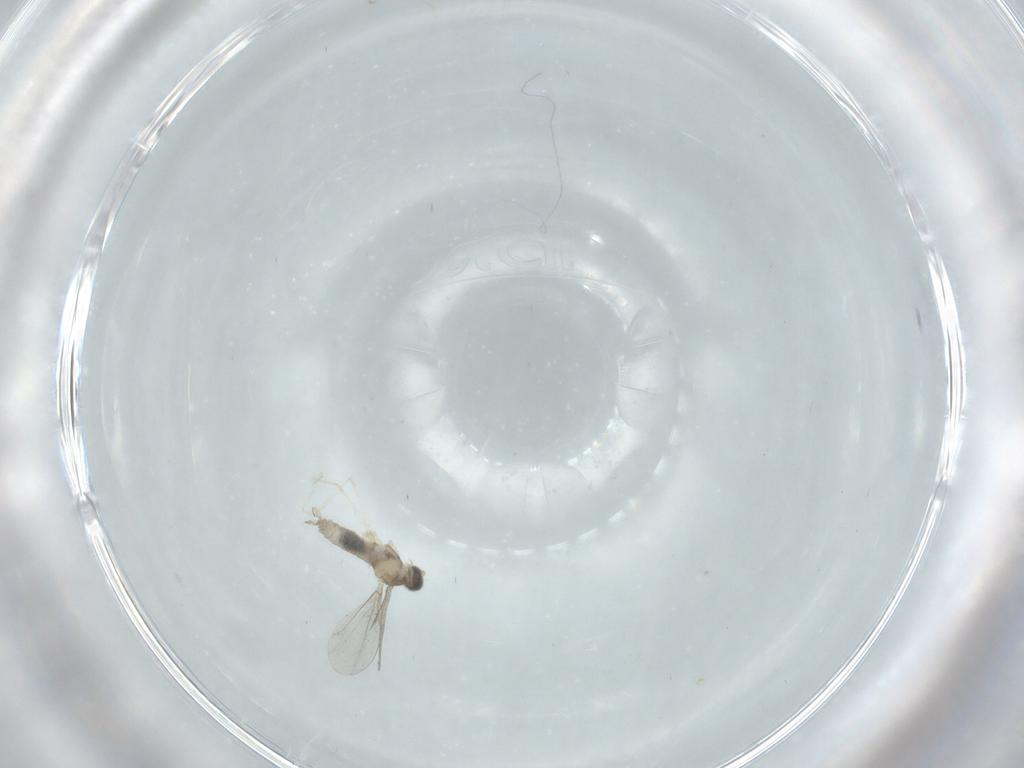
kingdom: Animalia
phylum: Arthropoda
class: Insecta
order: Diptera
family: Cecidomyiidae
